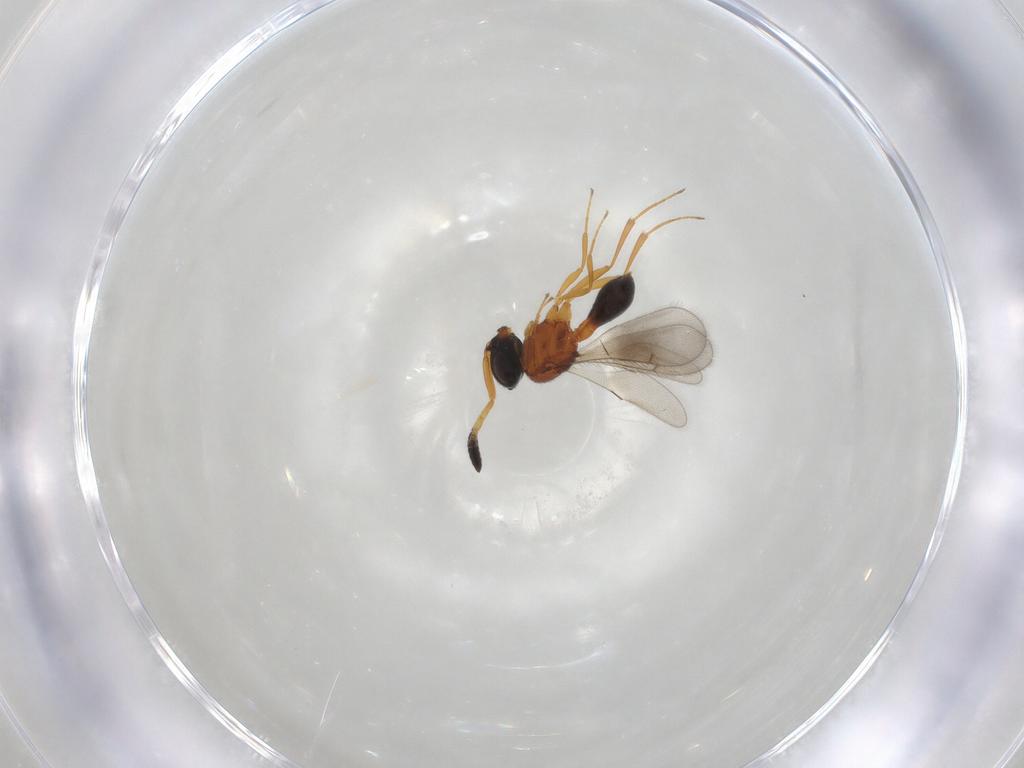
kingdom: Animalia
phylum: Arthropoda
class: Insecta
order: Hymenoptera
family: Scelionidae
